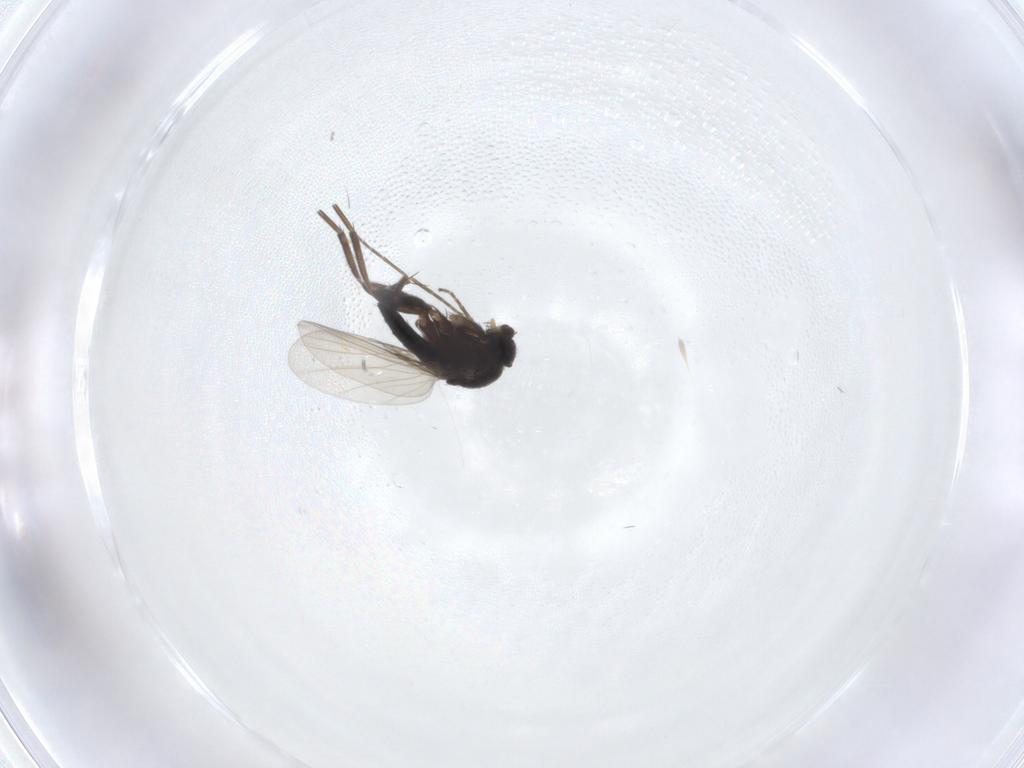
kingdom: Animalia
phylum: Arthropoda
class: Insecta
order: Diptera
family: Phoridae
